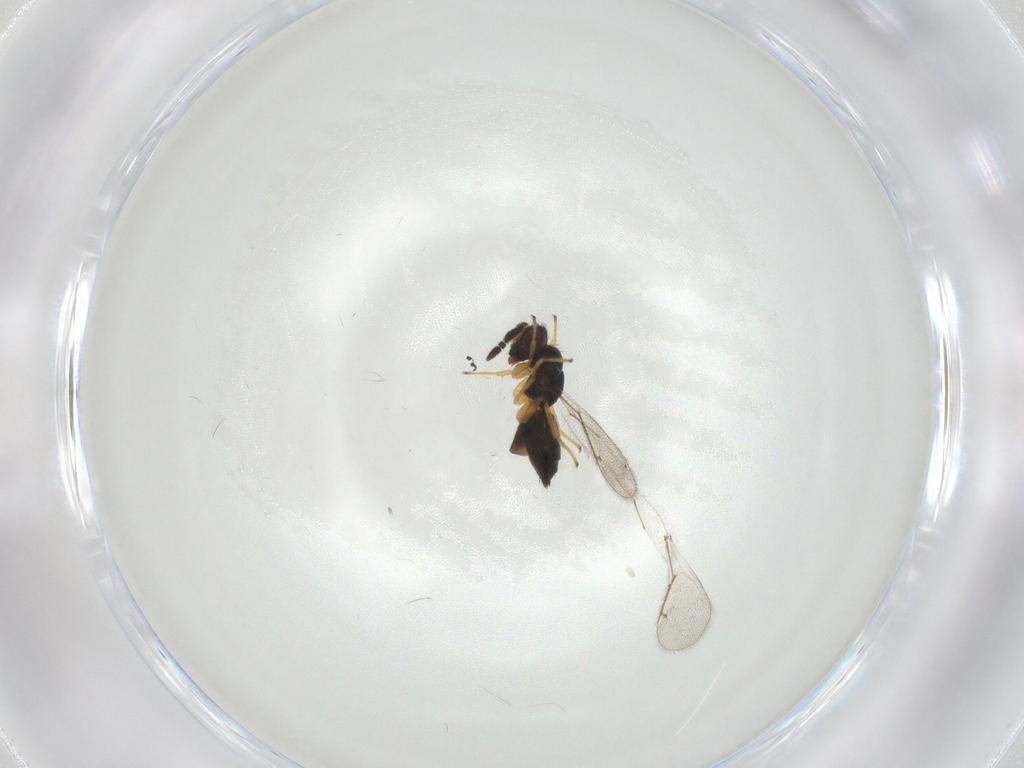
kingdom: Animalia
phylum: Arthropoda
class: Insecta
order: Hymenoptera
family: Pirenidae
